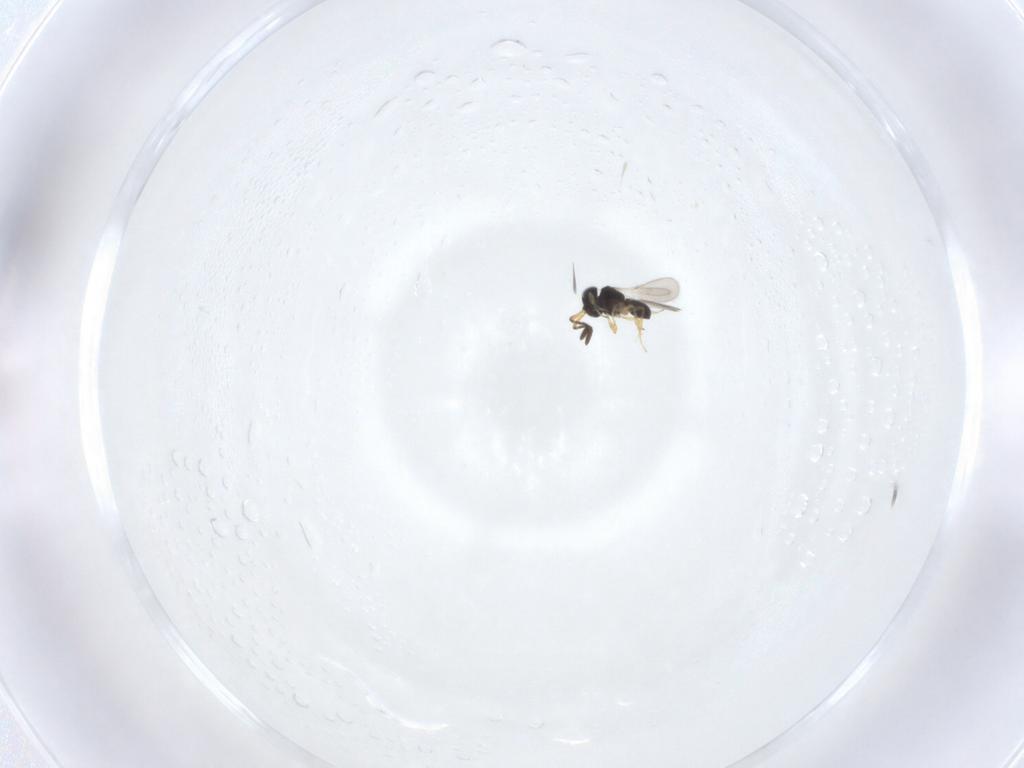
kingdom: Animalia
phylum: Arthropoda
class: Insecta
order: Hymenoptera
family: Scelionidae
